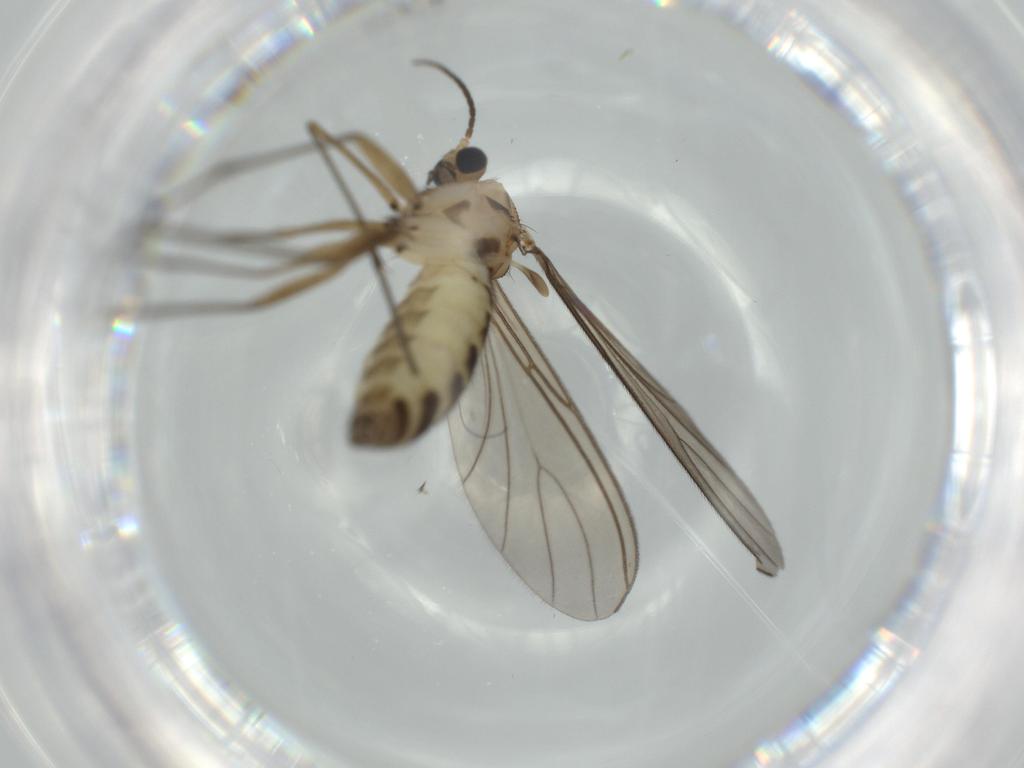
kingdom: Animalia
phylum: Arthropoda
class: Insecta
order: Diptera
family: Sciaridae
